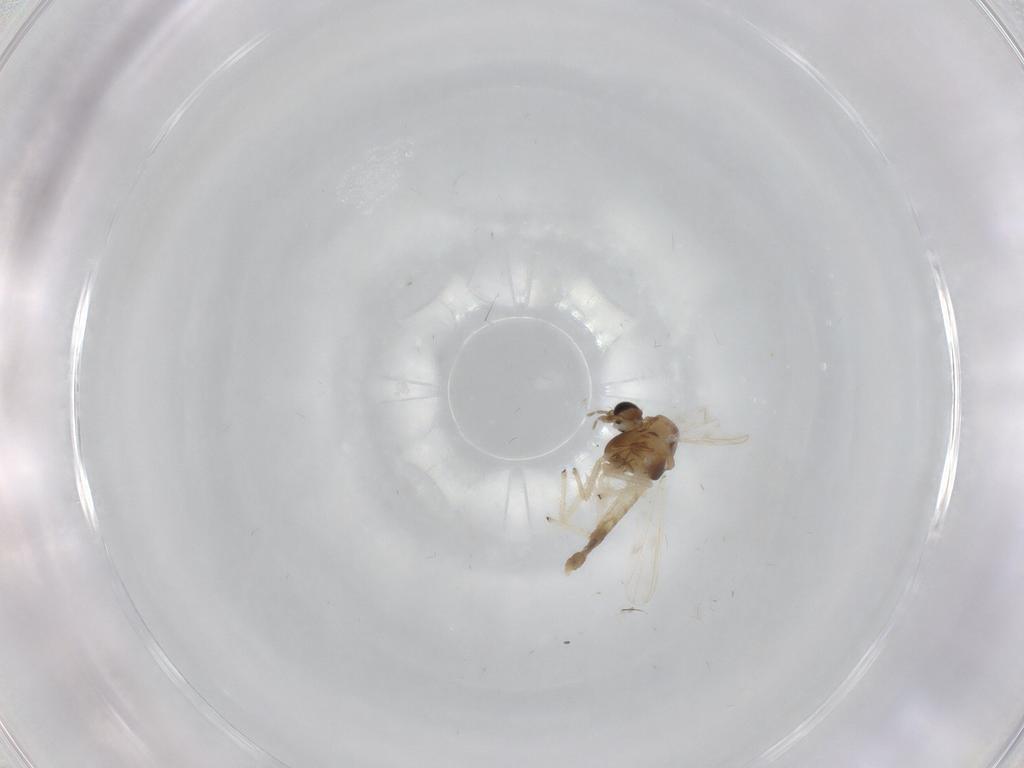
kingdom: Animalia
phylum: Arthropoda
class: Insecta
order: Diptera
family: Chironomidae
